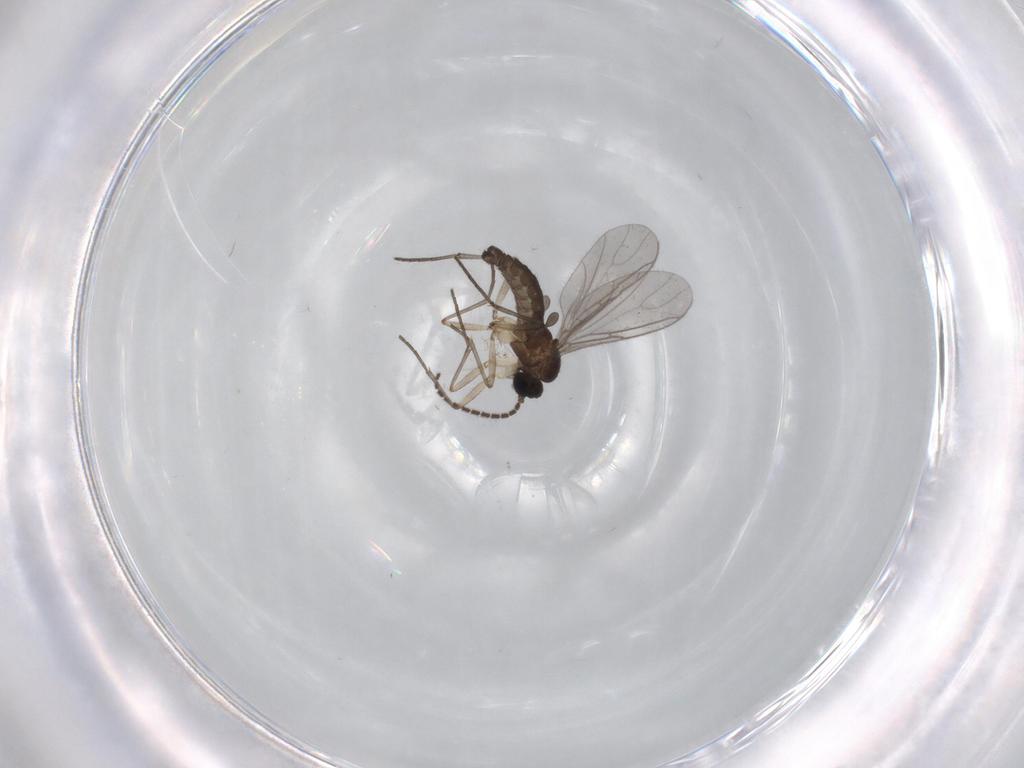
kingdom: Animalia
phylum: Arthropoda
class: Insecta
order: Diptera
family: Sciaridae
